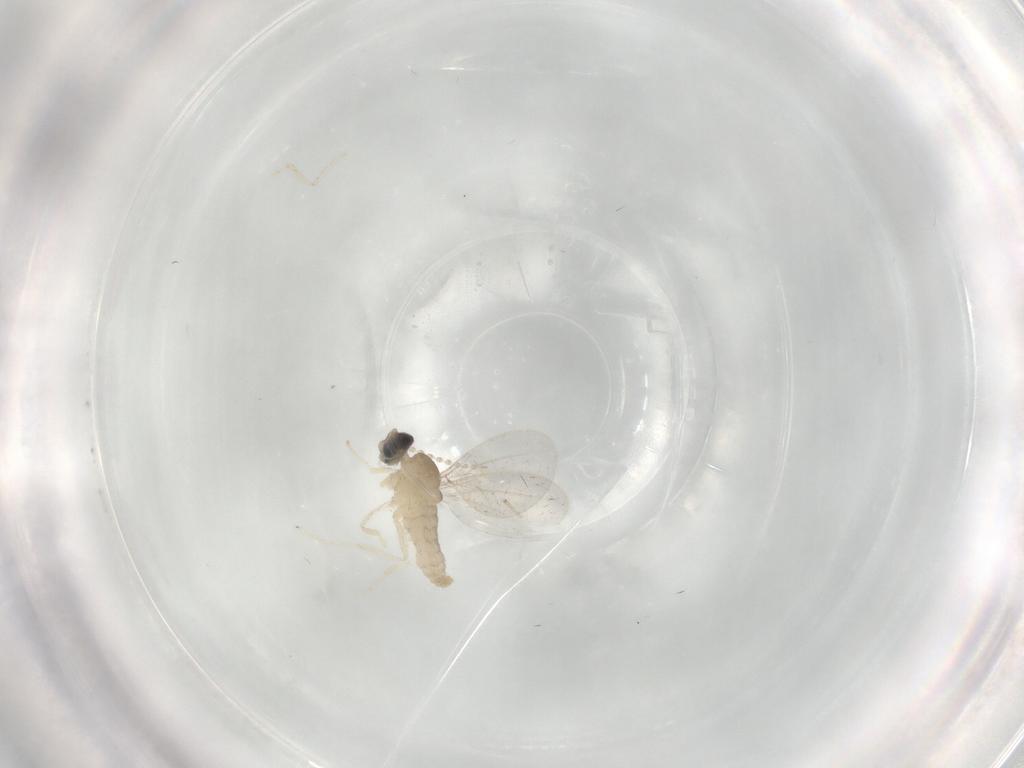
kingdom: Animalia
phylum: Arthropoda
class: Insecta
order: Diptera
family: Cecidomyiidae
